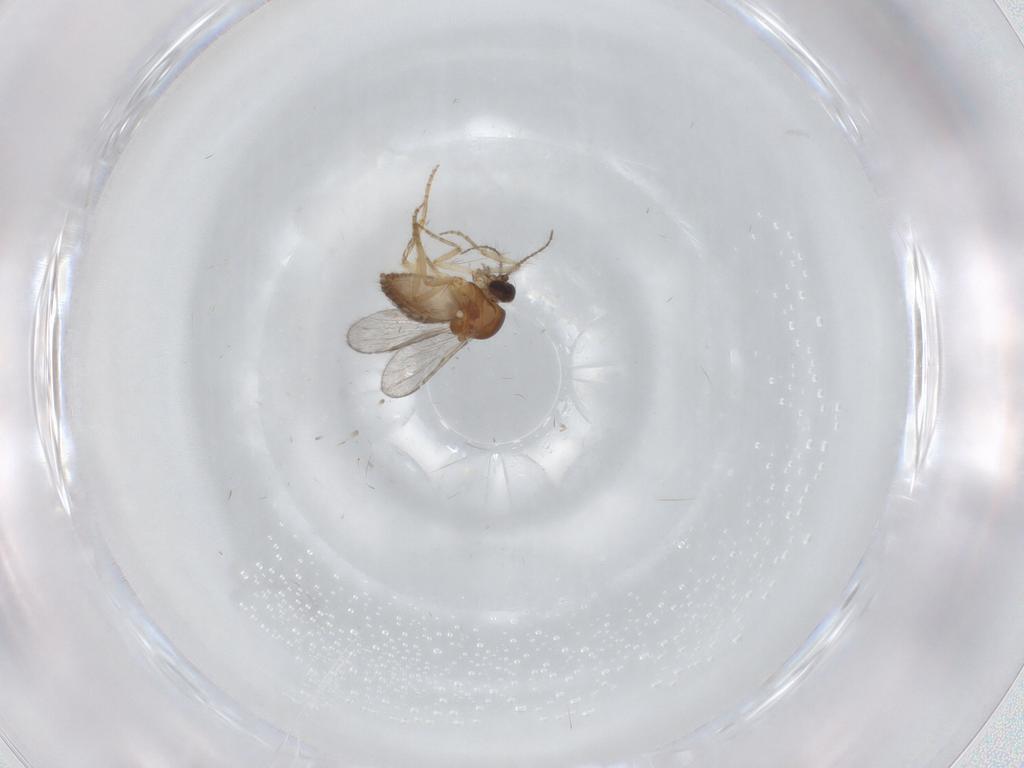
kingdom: Animalia
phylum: Arthropoda
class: Insecta
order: Diptera
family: Ceratopogonidae
